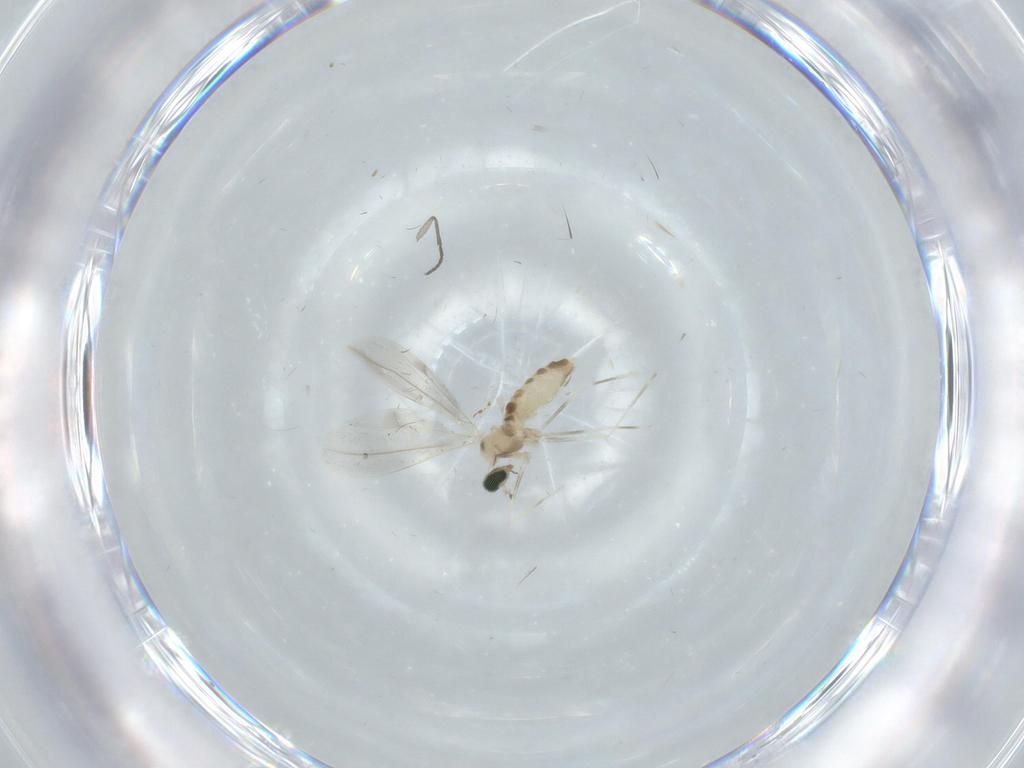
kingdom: Animalia
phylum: Arthropoda
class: Insecta
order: Diptera
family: Cecidomyiidae
